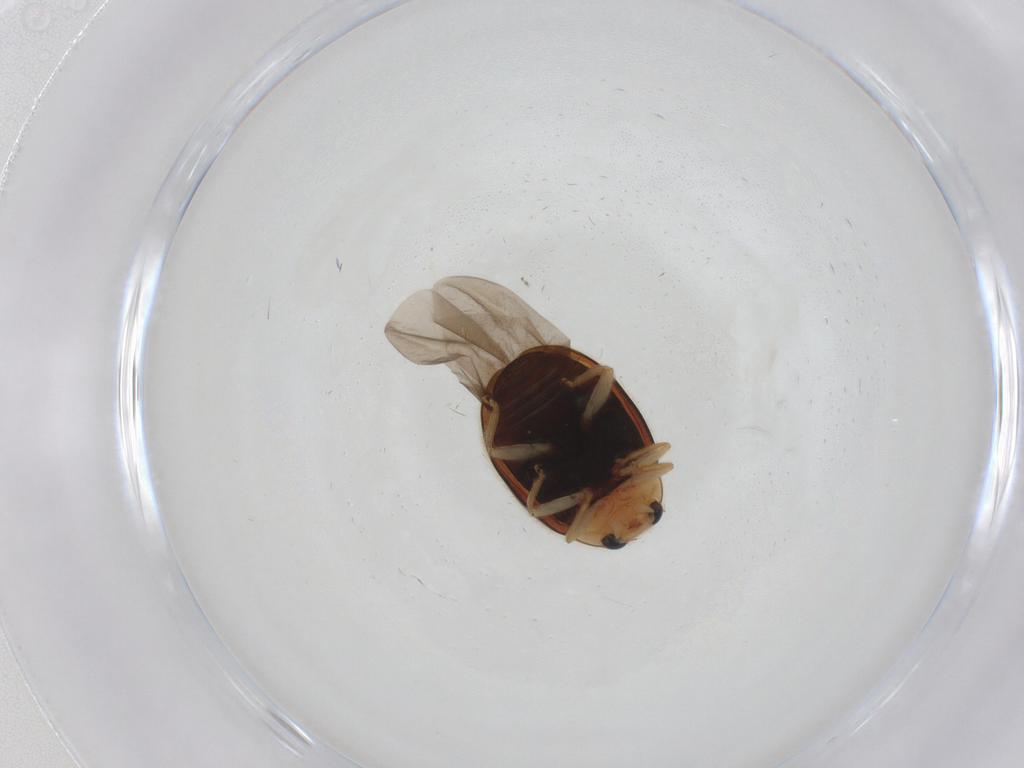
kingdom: Animalia
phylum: Arthropoda
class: Insecta
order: Coleoptera
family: Coccinellidae
